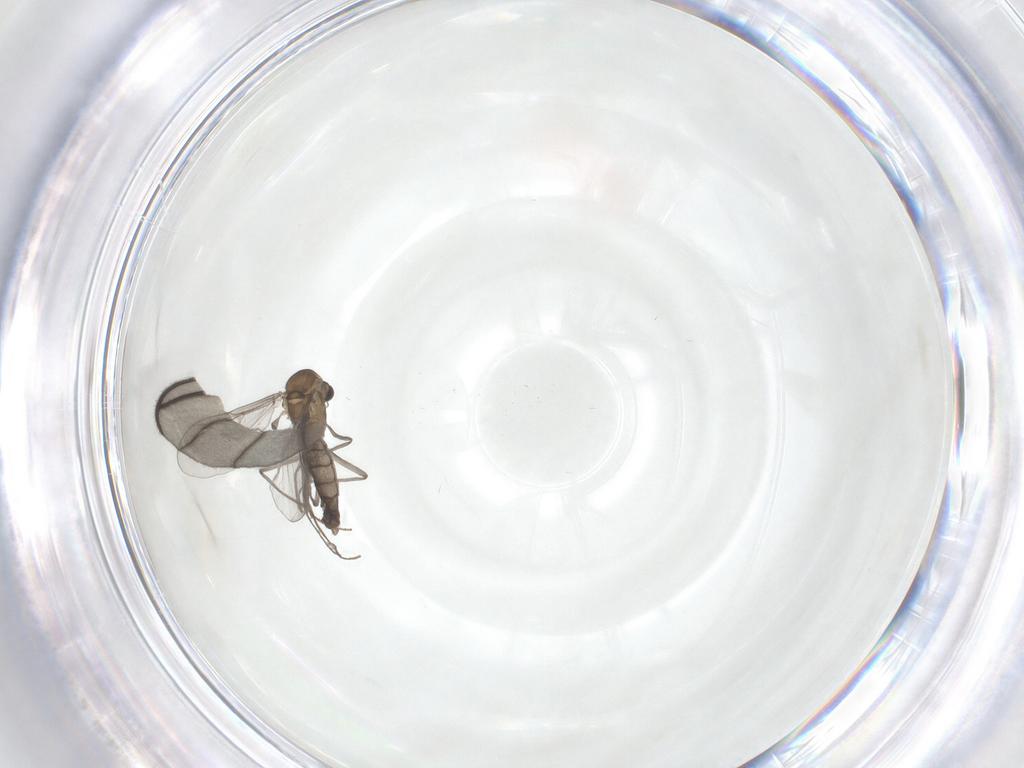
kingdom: Animalia
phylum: Arthropoda
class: Insecta
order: Diptera
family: Chironomidae
